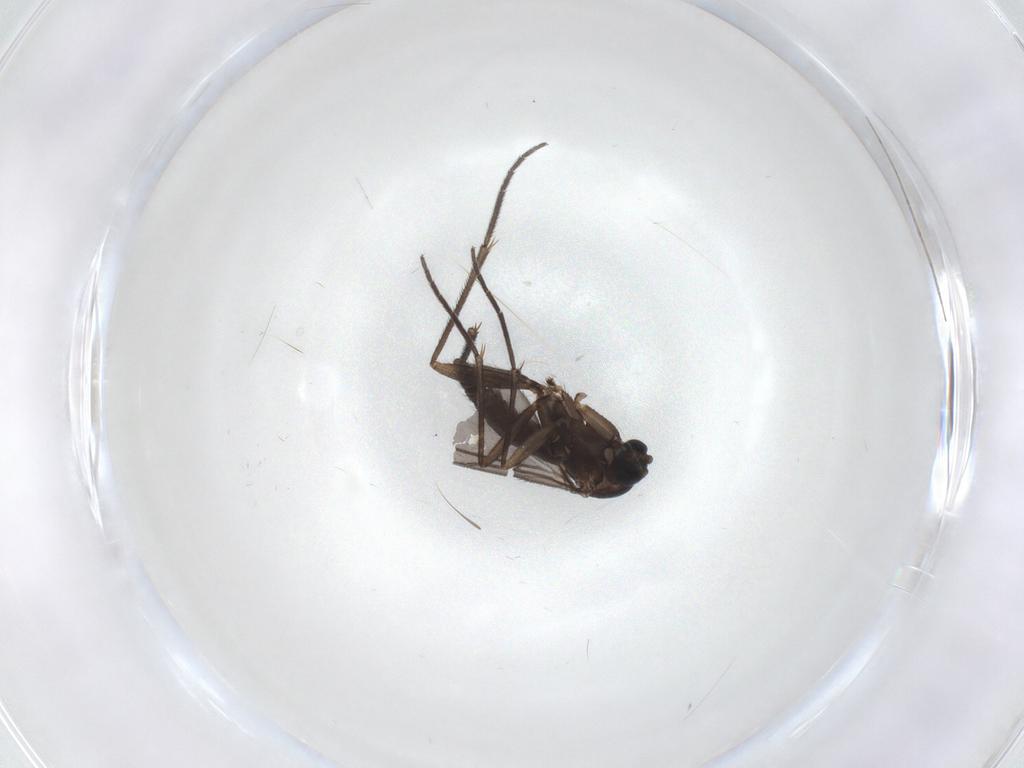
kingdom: Animalia
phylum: Arthropoda
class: Insecta
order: Diptera
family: Sciaridae
